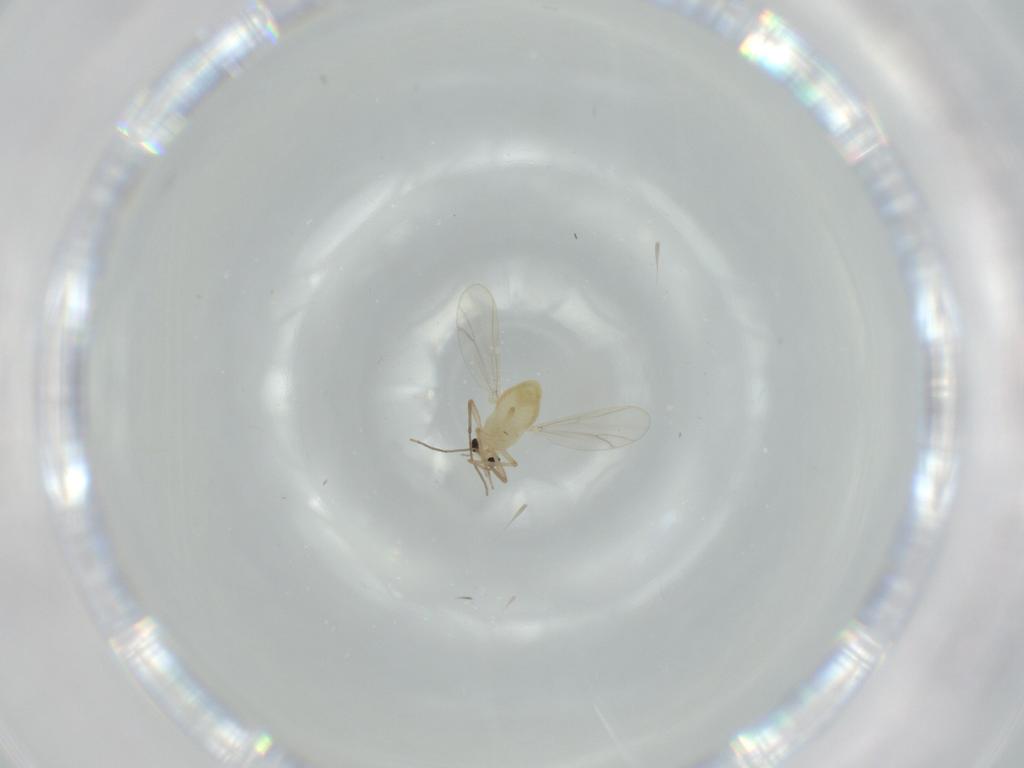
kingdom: Animalia
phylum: Arthropoda
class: Insecta
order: Diptera
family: Chironomidae
